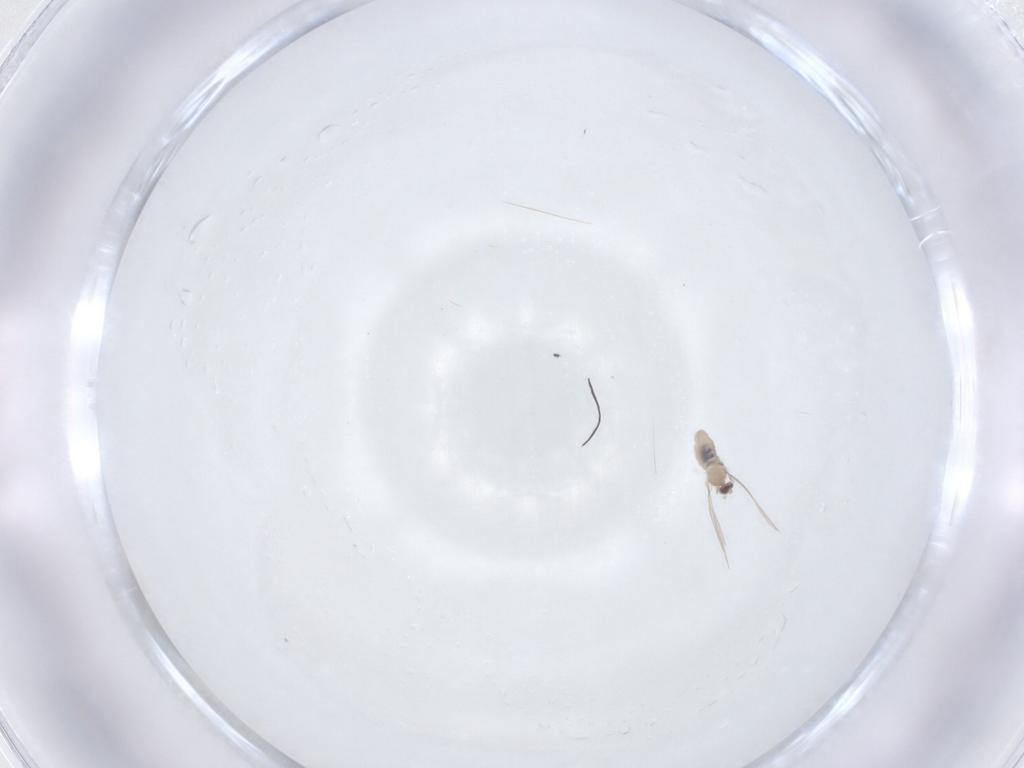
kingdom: Animalia
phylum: Arthropoda
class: Insecta
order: Diptera
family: Cecidomyiidae
